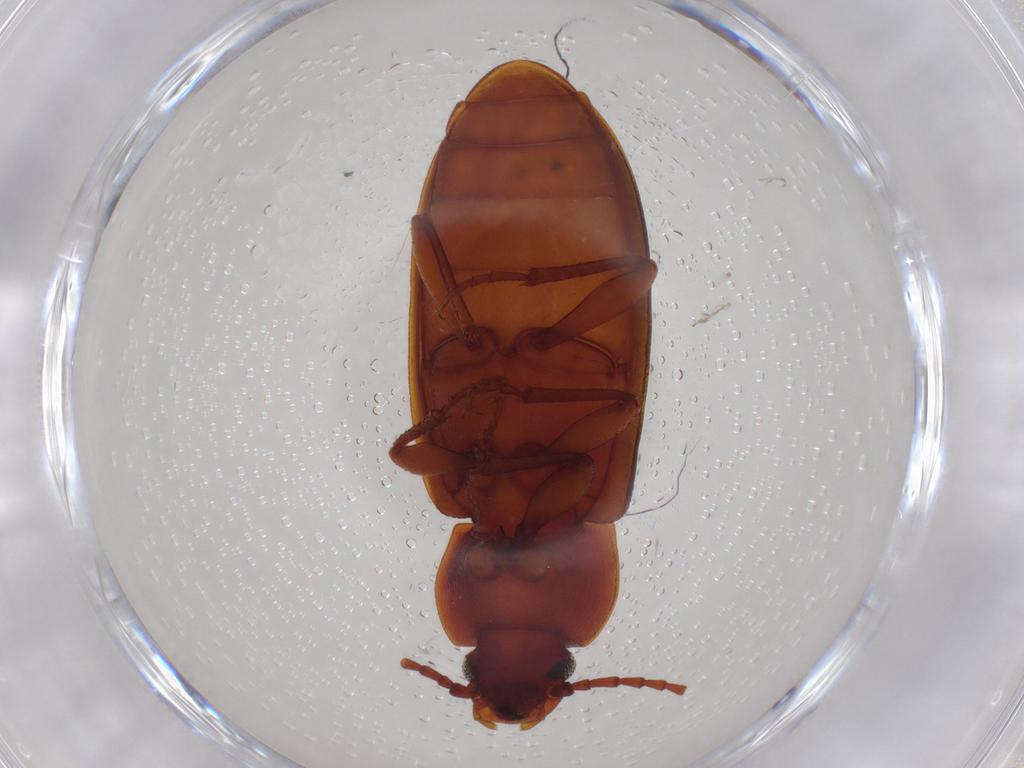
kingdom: Animalia
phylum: Arthropoda
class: Insecta
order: Coleoptera
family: Tenebrionidae
